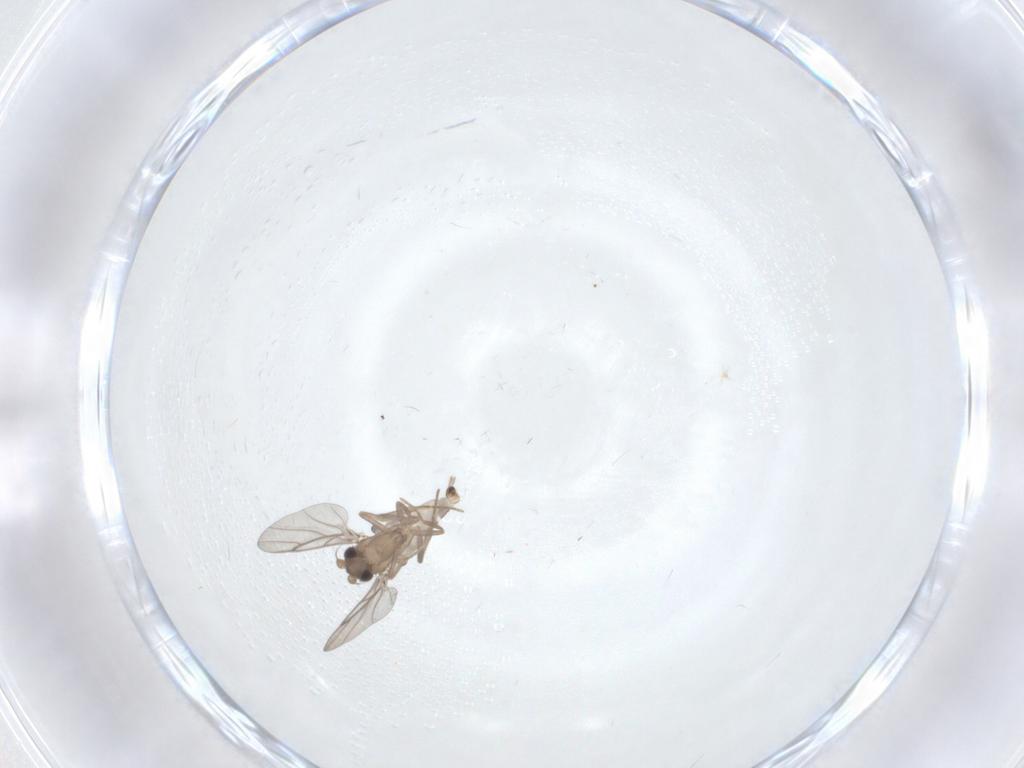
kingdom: Animalia
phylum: Arthropoda
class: Insecta
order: Diptera
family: Chironomidae
